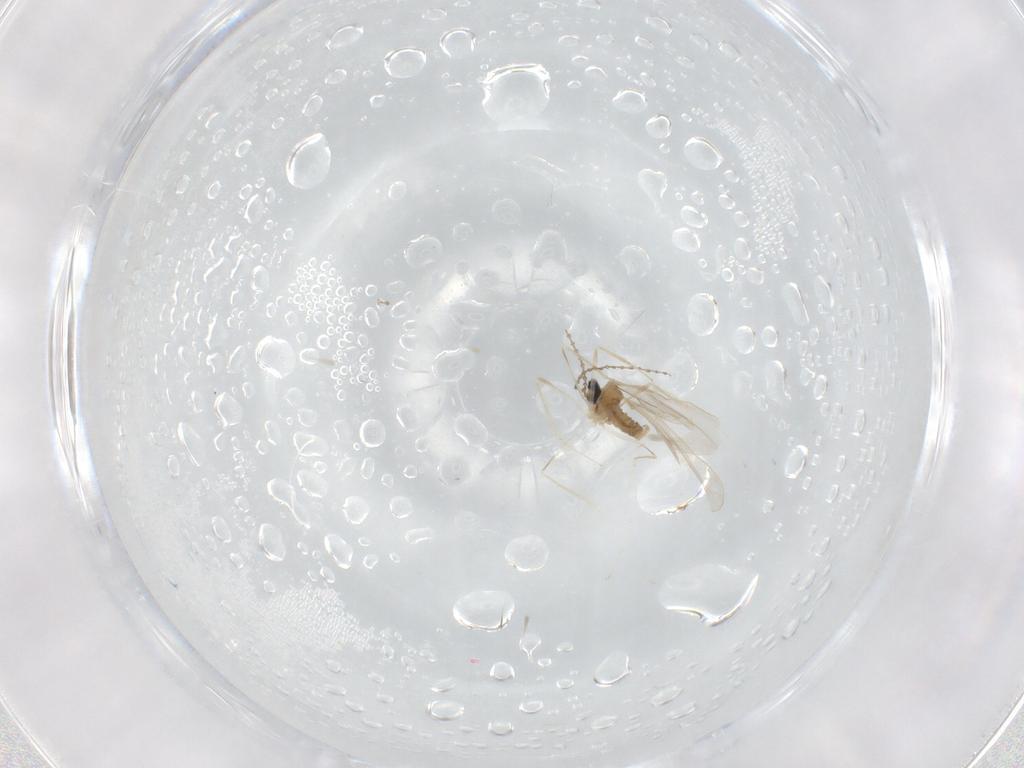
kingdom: Animalia
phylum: Arthropoda
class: Insecta
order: Diptera
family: Cecidomyiidae
